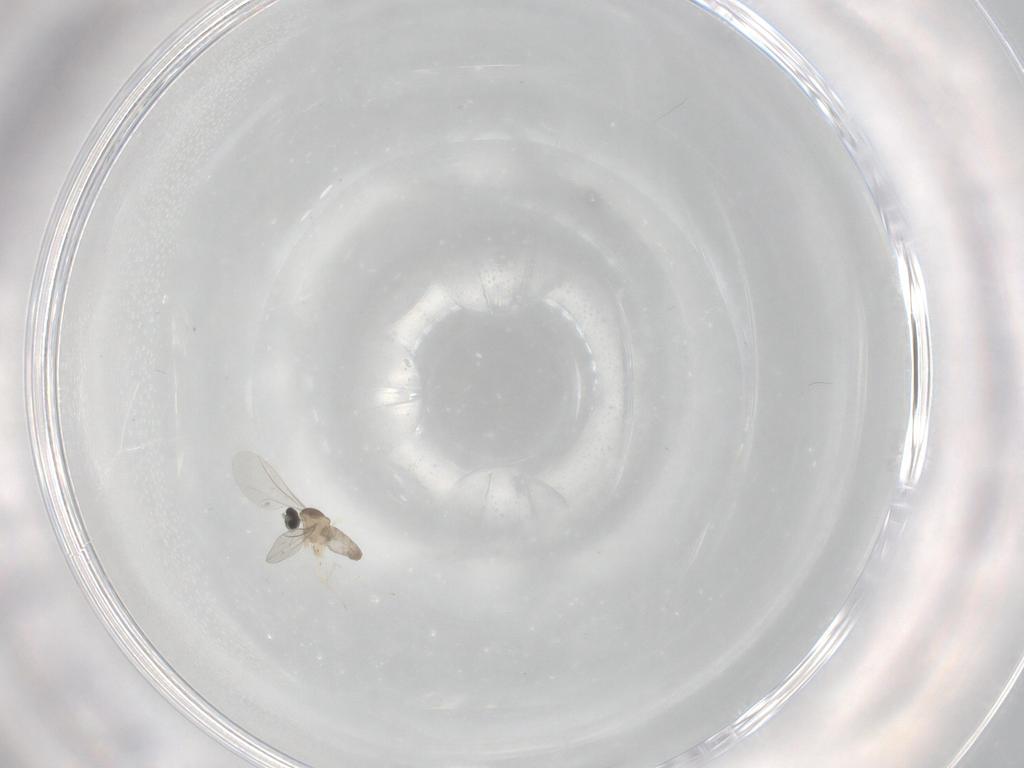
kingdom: Animalia
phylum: Arthropoda
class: Insecta
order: Diptera
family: Cecidomyiidae
